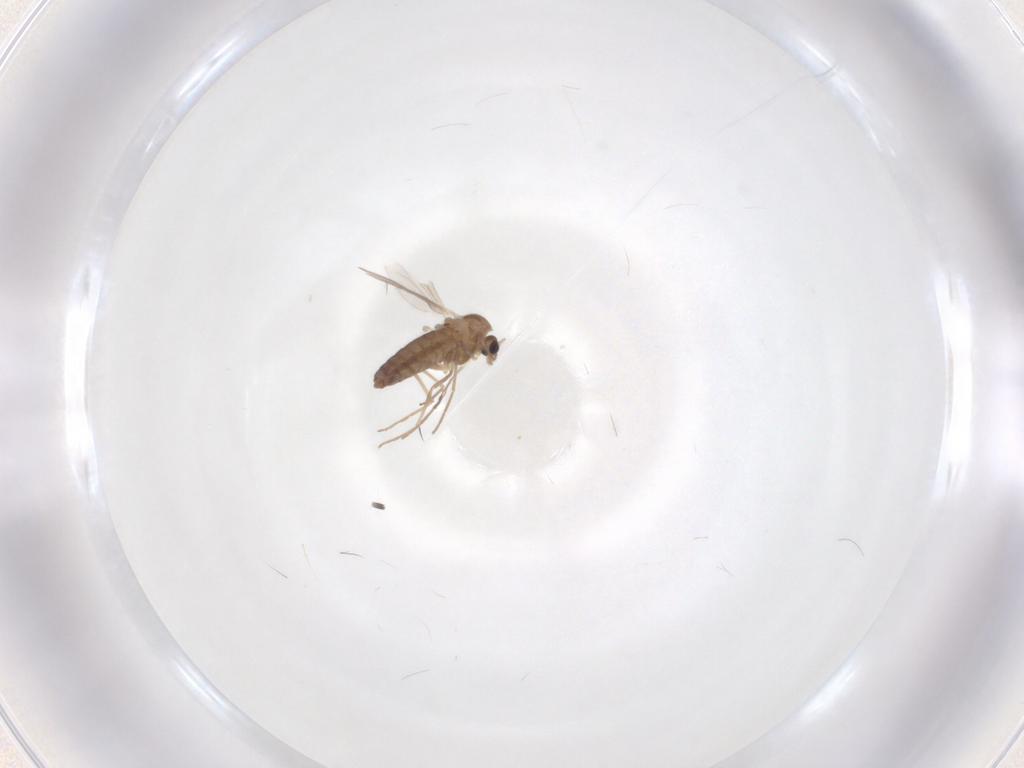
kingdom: Animalia
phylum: Arthropoda
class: Insecta
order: Diptera
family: Chironomidae
